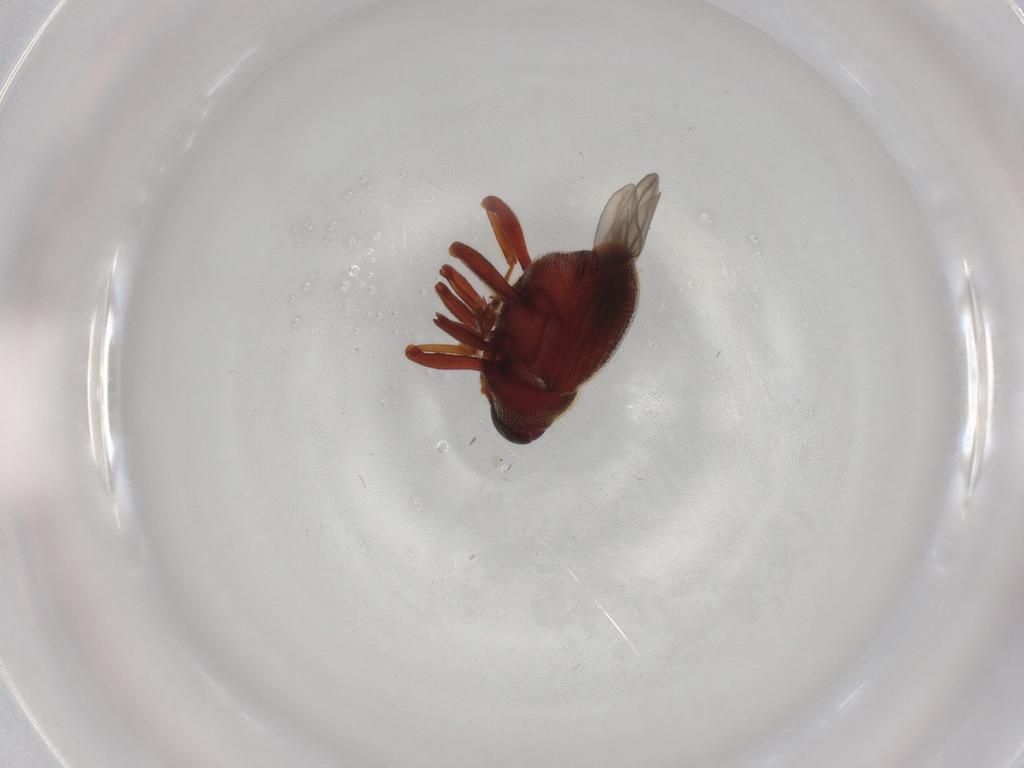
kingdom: Animalia
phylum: Arthropoda
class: Insecta
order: Coleoptera
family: Curculionidae
